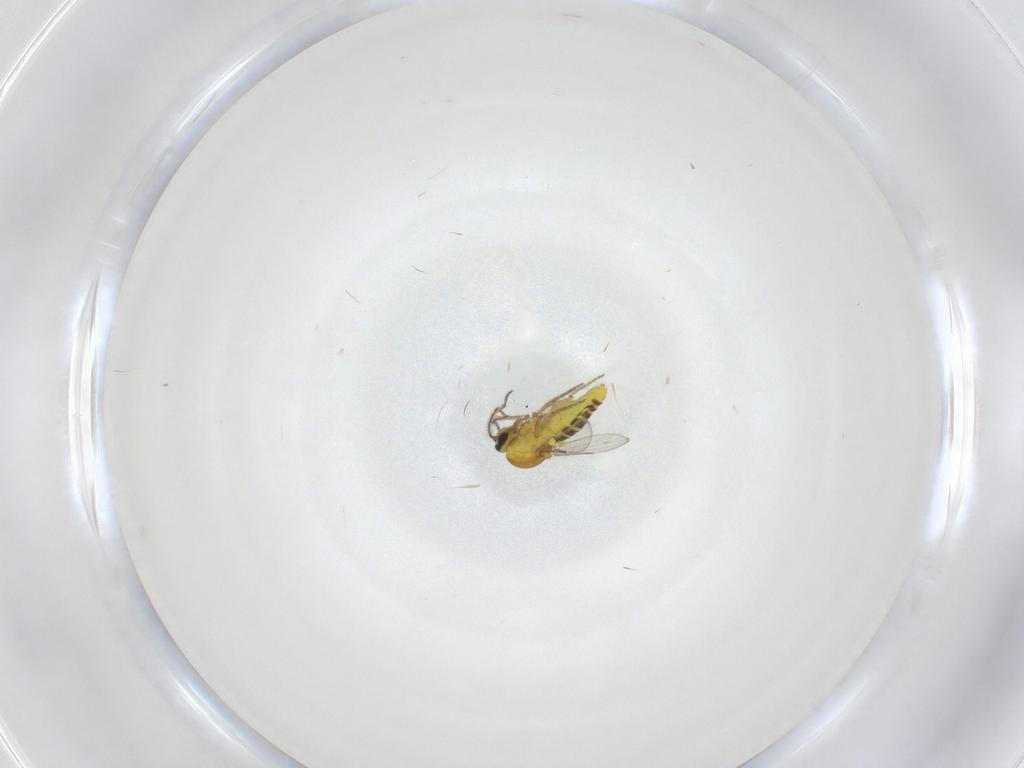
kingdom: Animalia
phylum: Arthropoda
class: Insecta
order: Diptera
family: Ceratopogonidae
